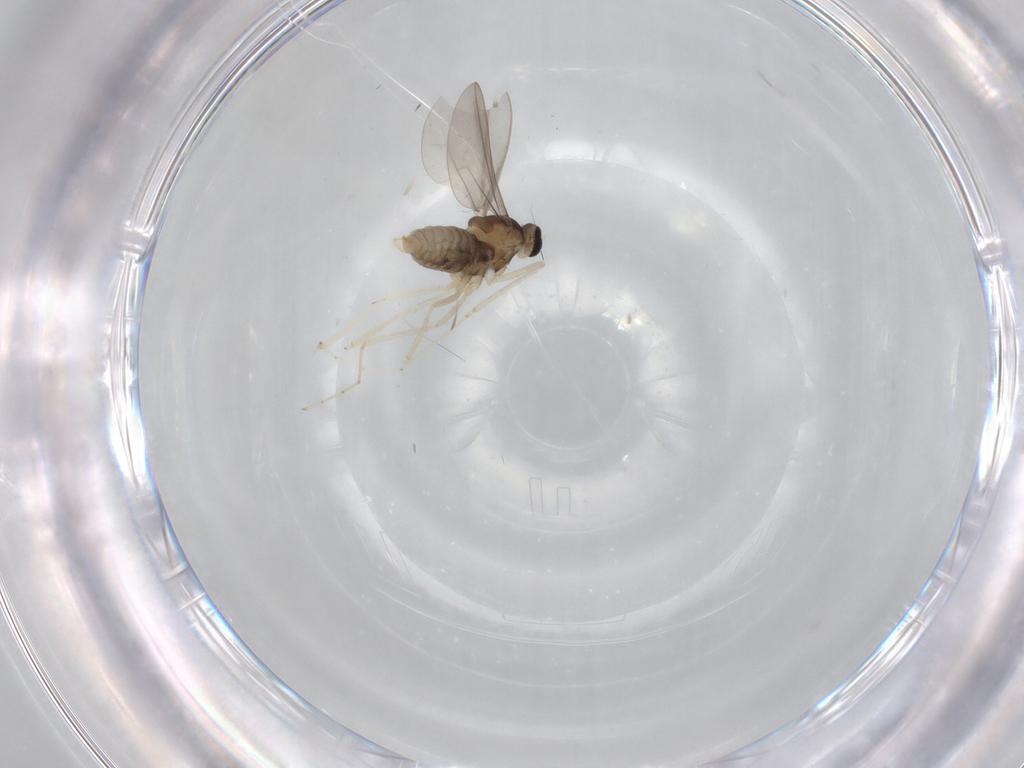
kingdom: Animalia
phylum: Arthropoda
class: Insecta
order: Diptera
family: Cecidomyiidae
